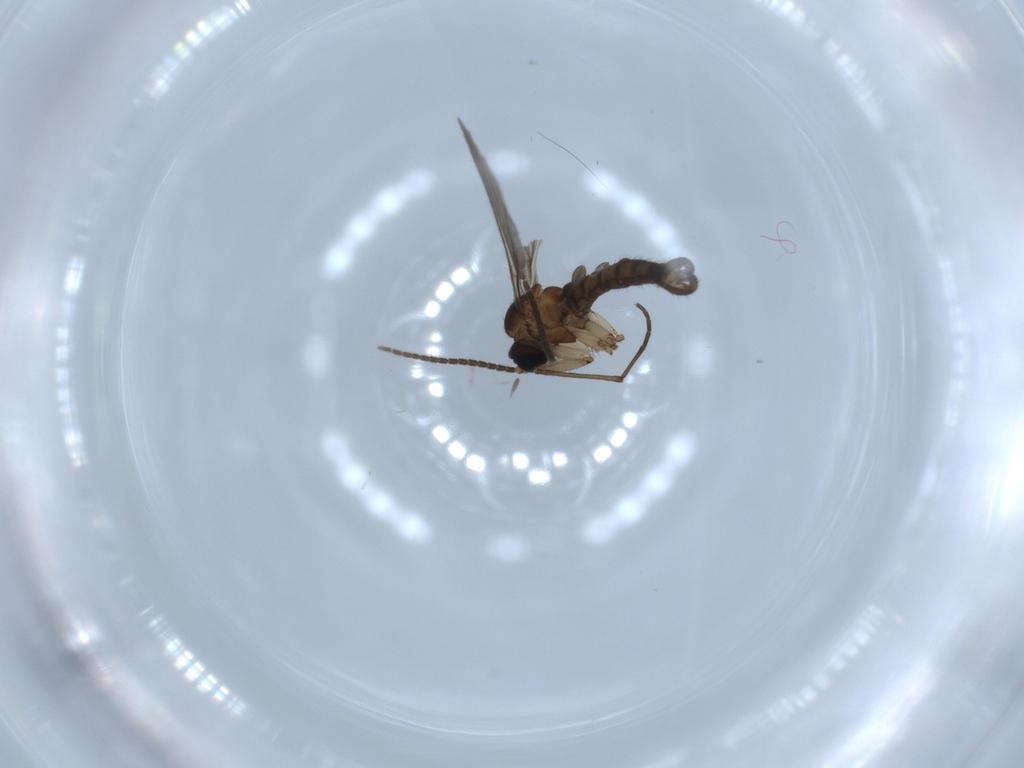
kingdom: Animalia
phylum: Arthropoda
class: Insecta
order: Diptera
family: Sciaridae
